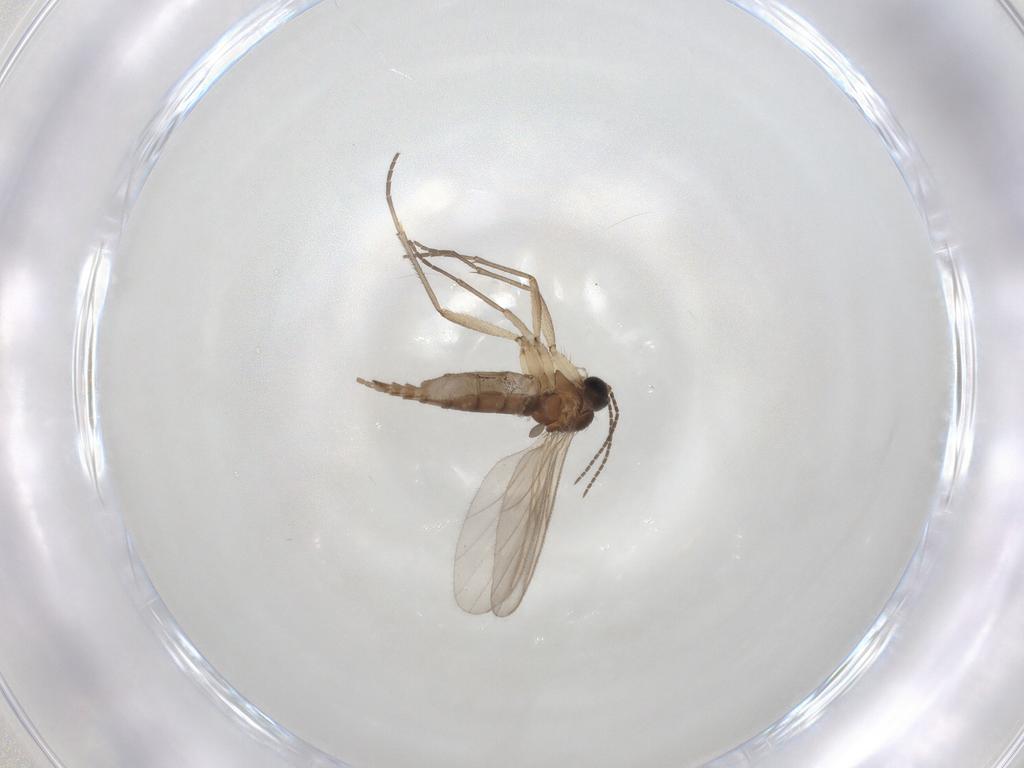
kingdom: Animalia
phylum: Arthropoda
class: Insecta
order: Diptera
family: Sciaridae
